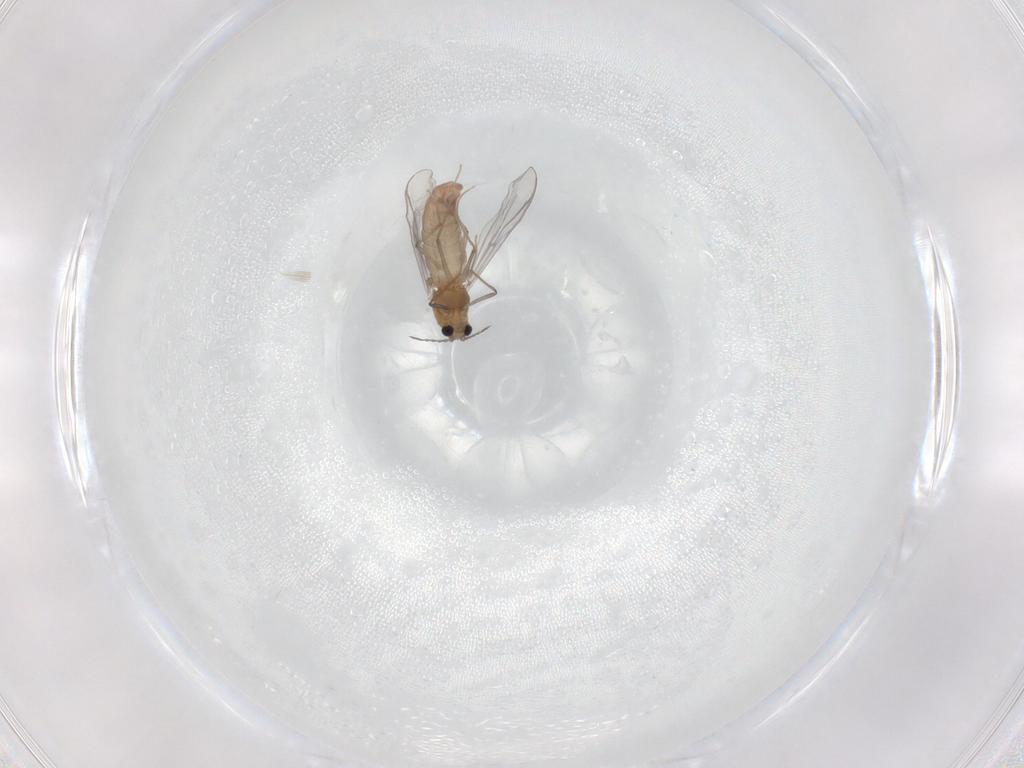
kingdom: Animalia
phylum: Arthropoda
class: Insecta
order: Diptera
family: Chironomidae
